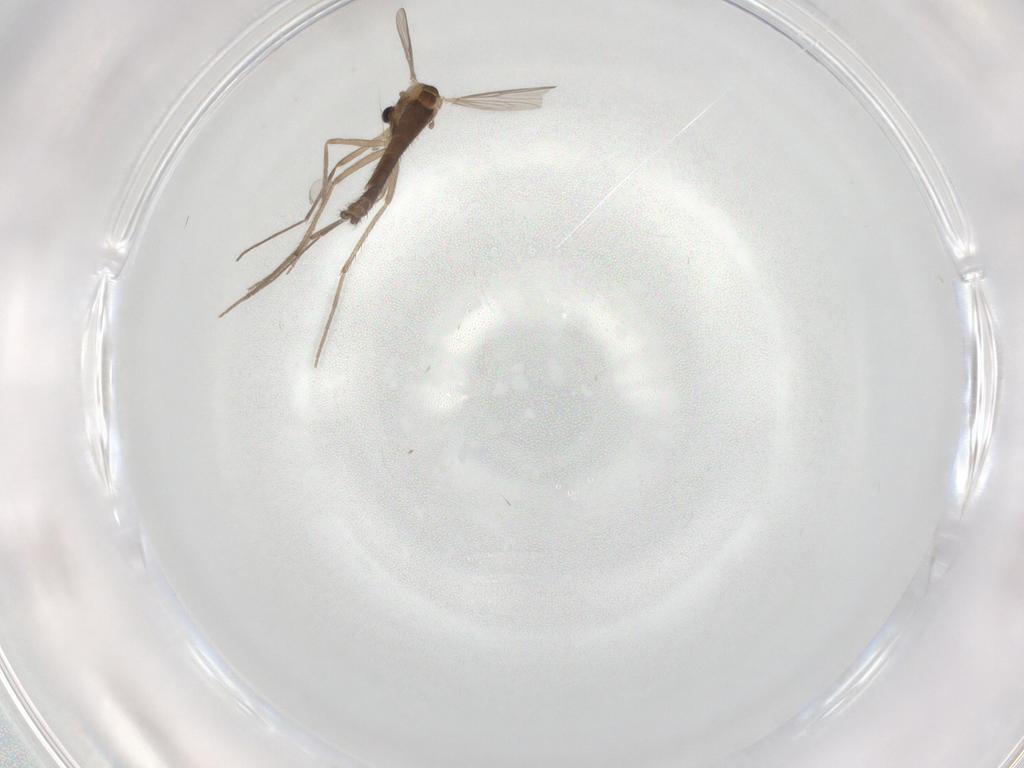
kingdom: Animalia
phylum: Arthropoda
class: Insecta
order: Diptera
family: Chironomidae
